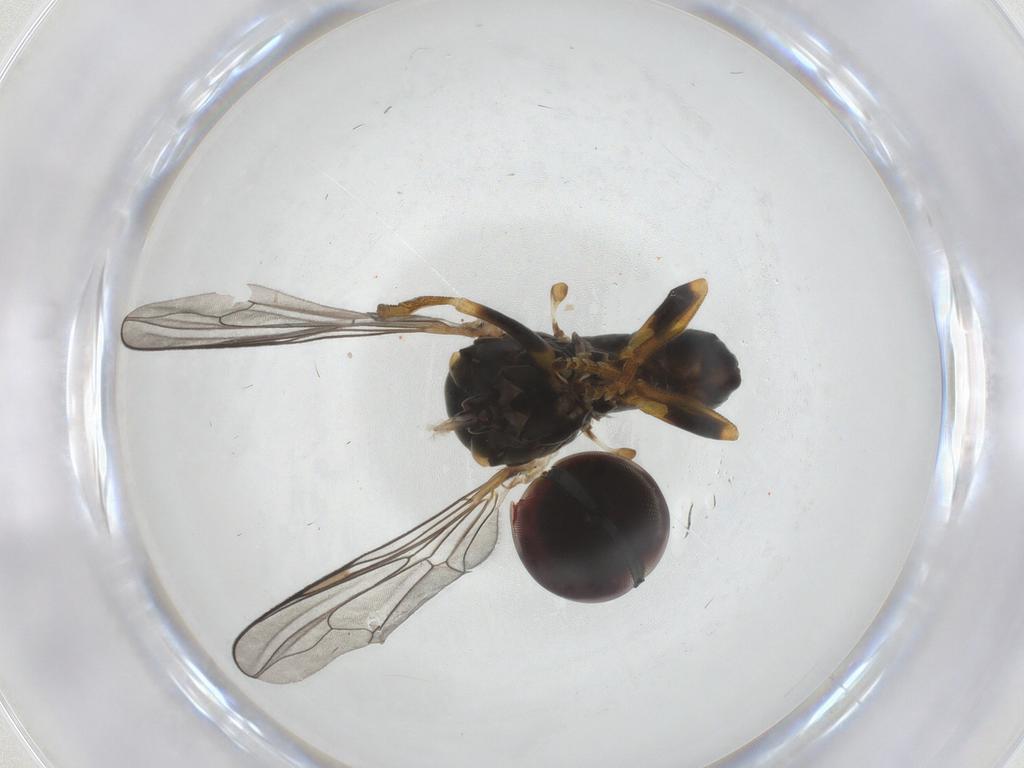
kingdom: Animalia
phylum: Arthropoda
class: Insecta
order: Diptera
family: Pipunculidae
